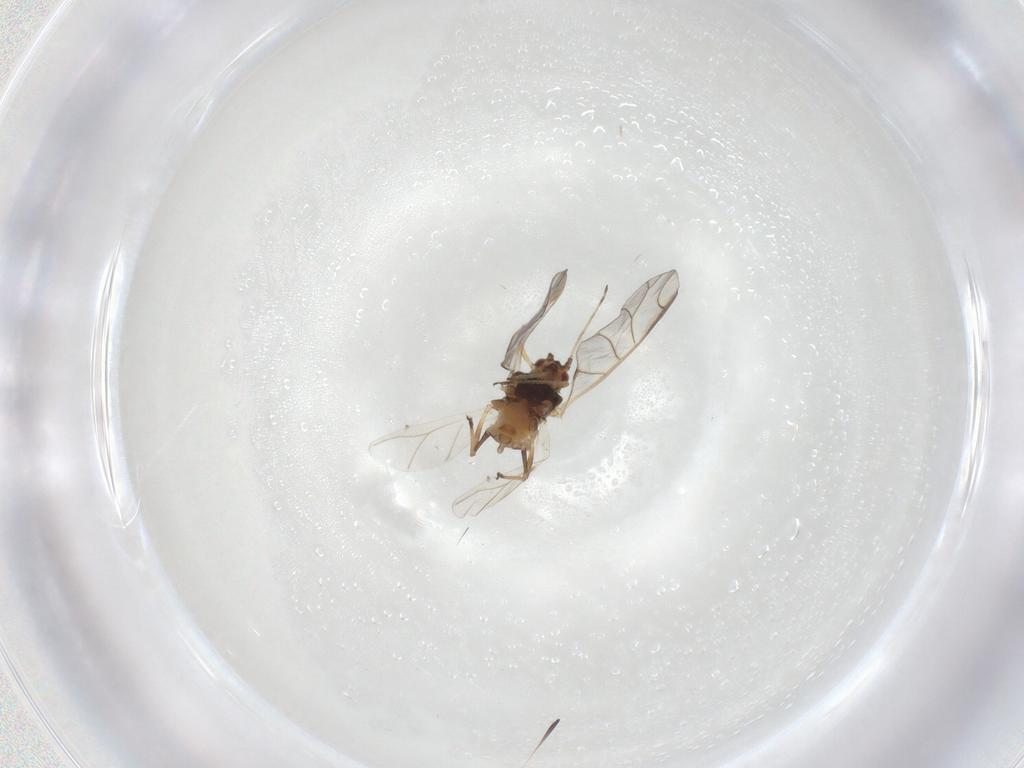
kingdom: Animalia
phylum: Arthropoda
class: Insecta
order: Hemiptera
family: Aphididae
